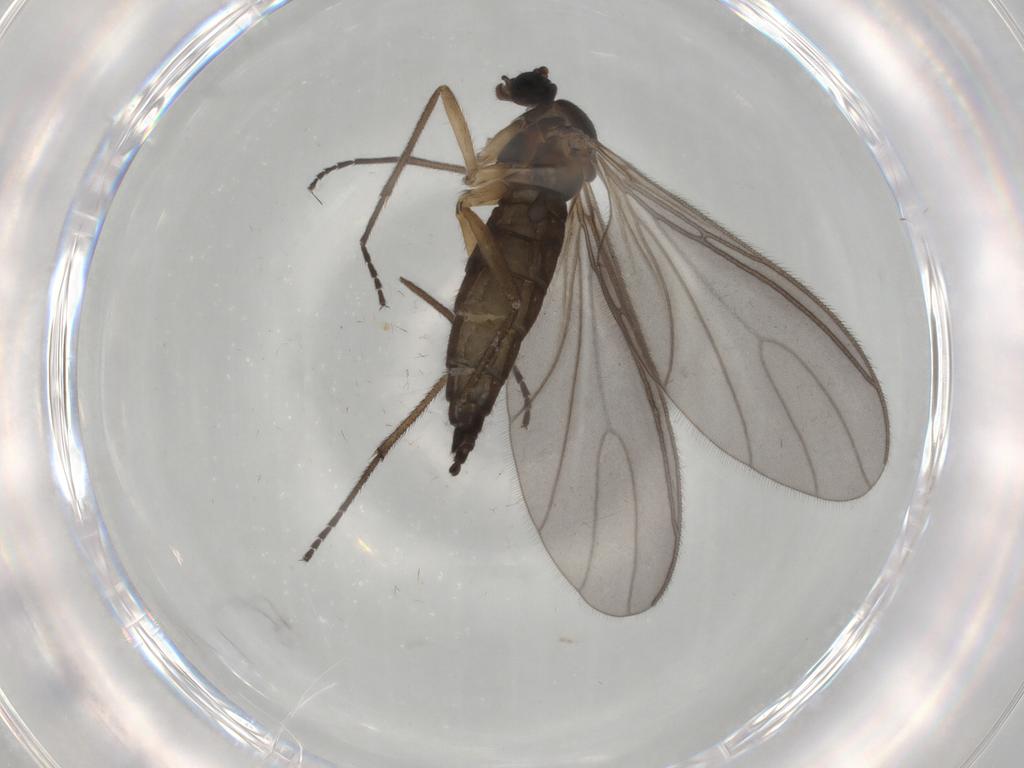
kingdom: Animalia
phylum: Arthropoda
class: Insecta
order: Diptera
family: Sciaridae
